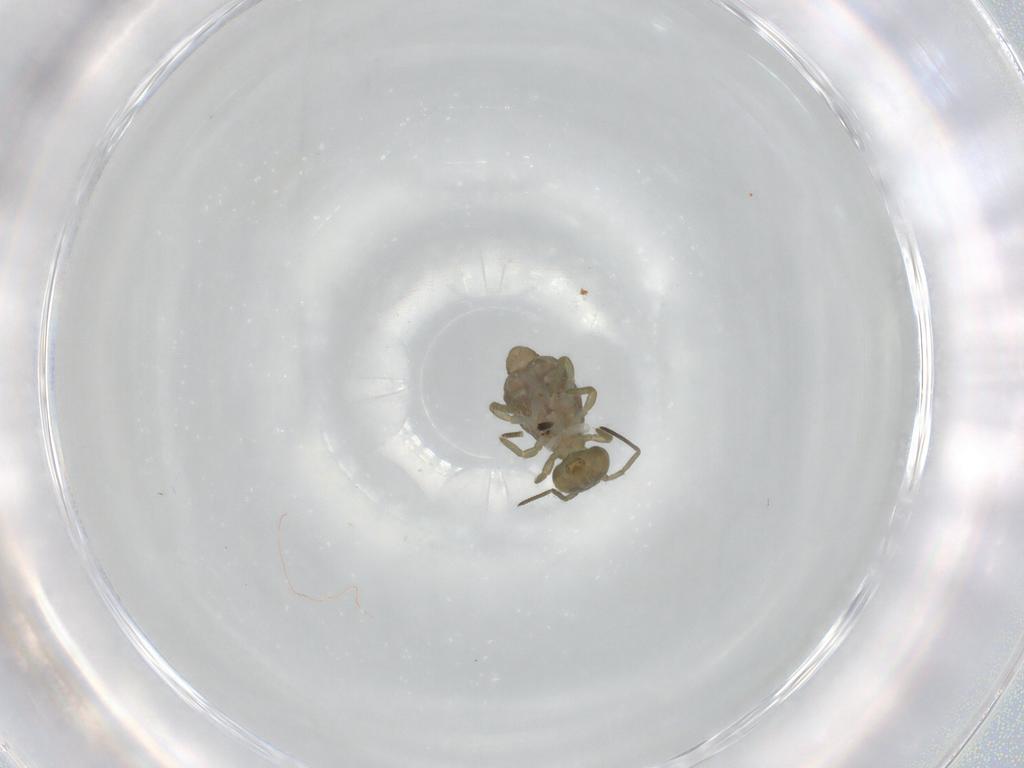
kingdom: Animalia
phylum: Arthropoda
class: Collembola
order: Symphypleona
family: Sminthuridae
